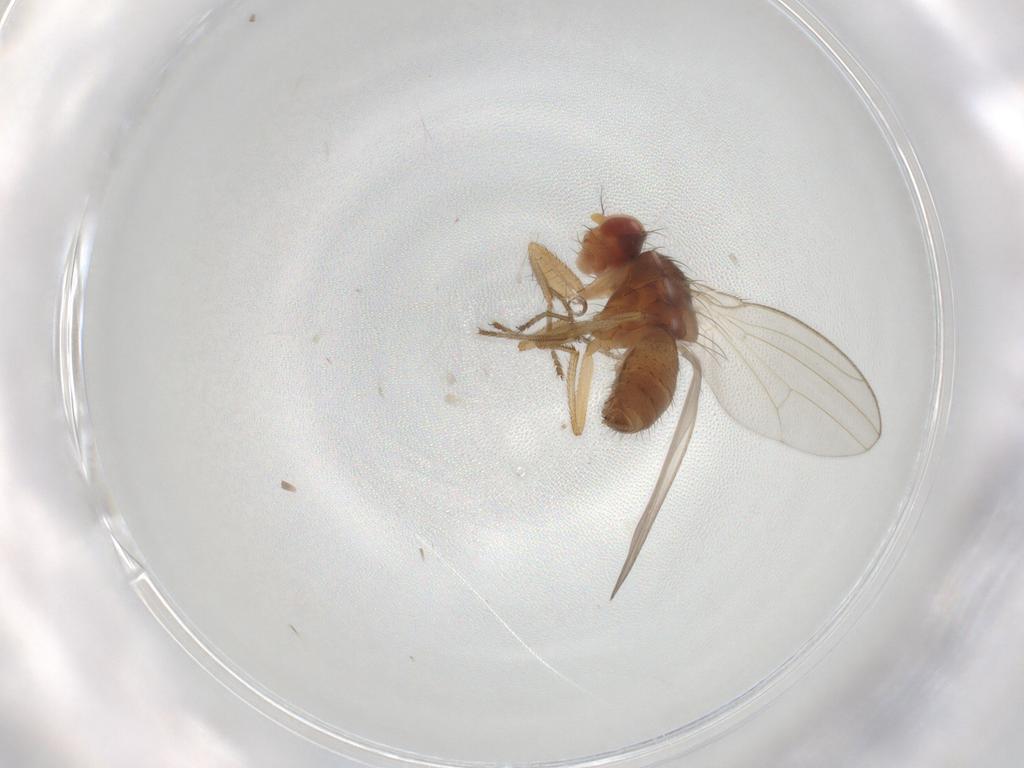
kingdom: Animalia
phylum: Arthropoda
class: Insecta
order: Diptera
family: Drosophilidae
